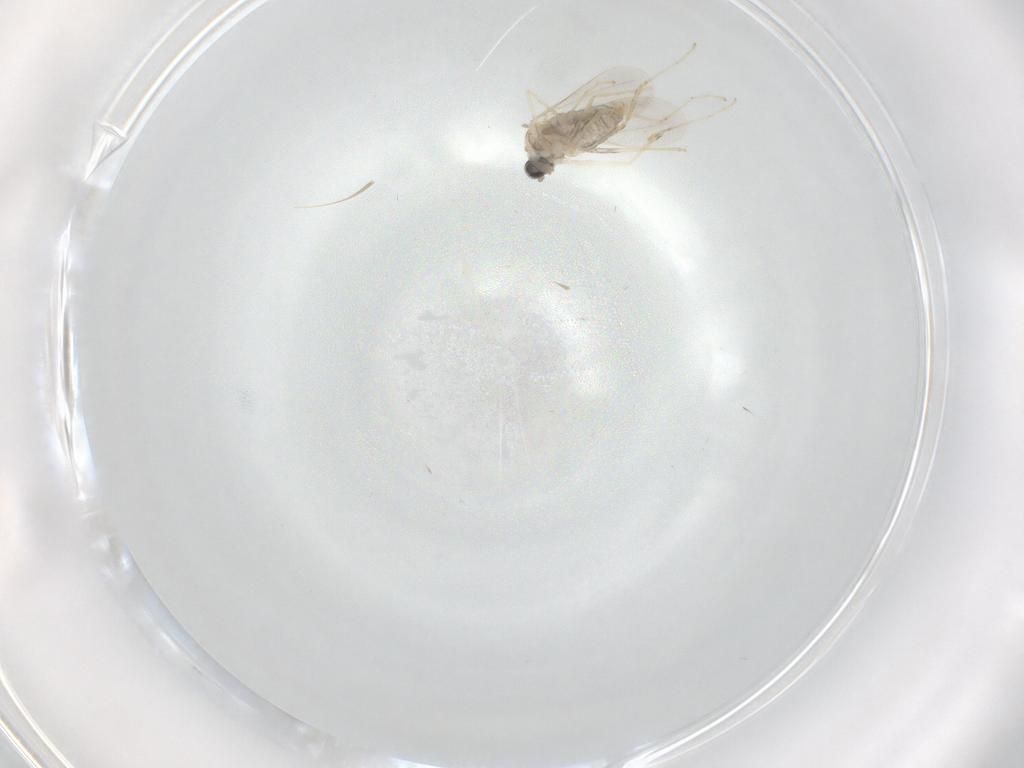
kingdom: Animalia
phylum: Arthropoda
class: Insecta
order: Diptera
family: Cecidomyiidae
